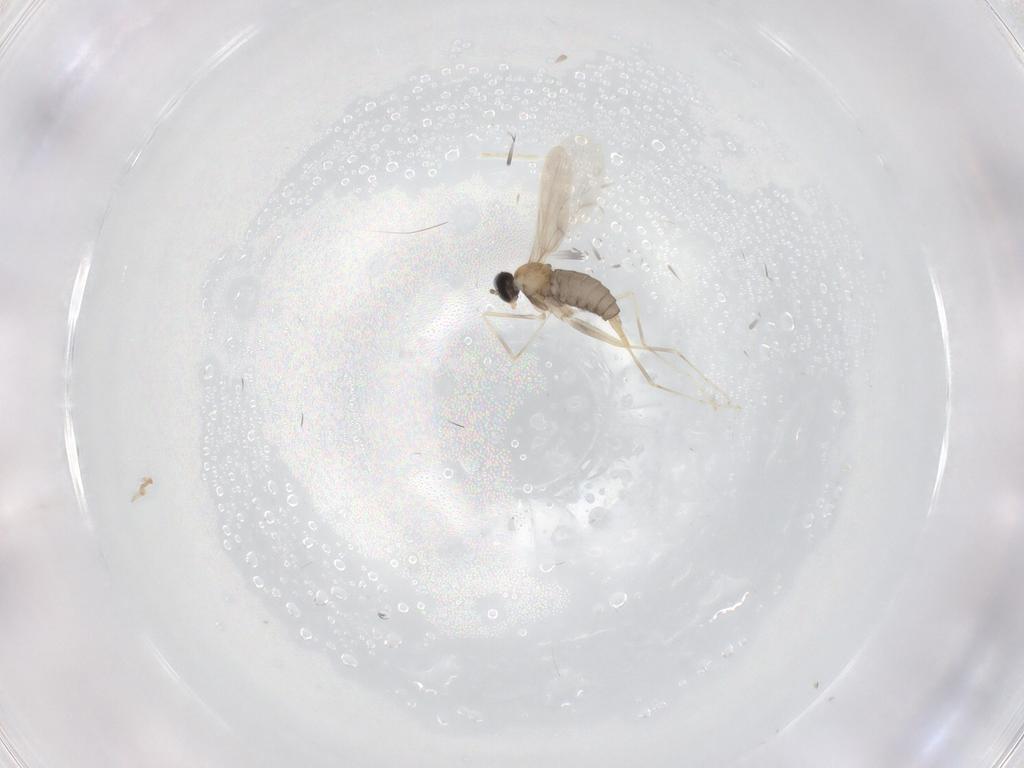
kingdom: Animalia
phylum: Arthropoda
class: Insecta
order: Diptera
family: Cecidomyiidae
